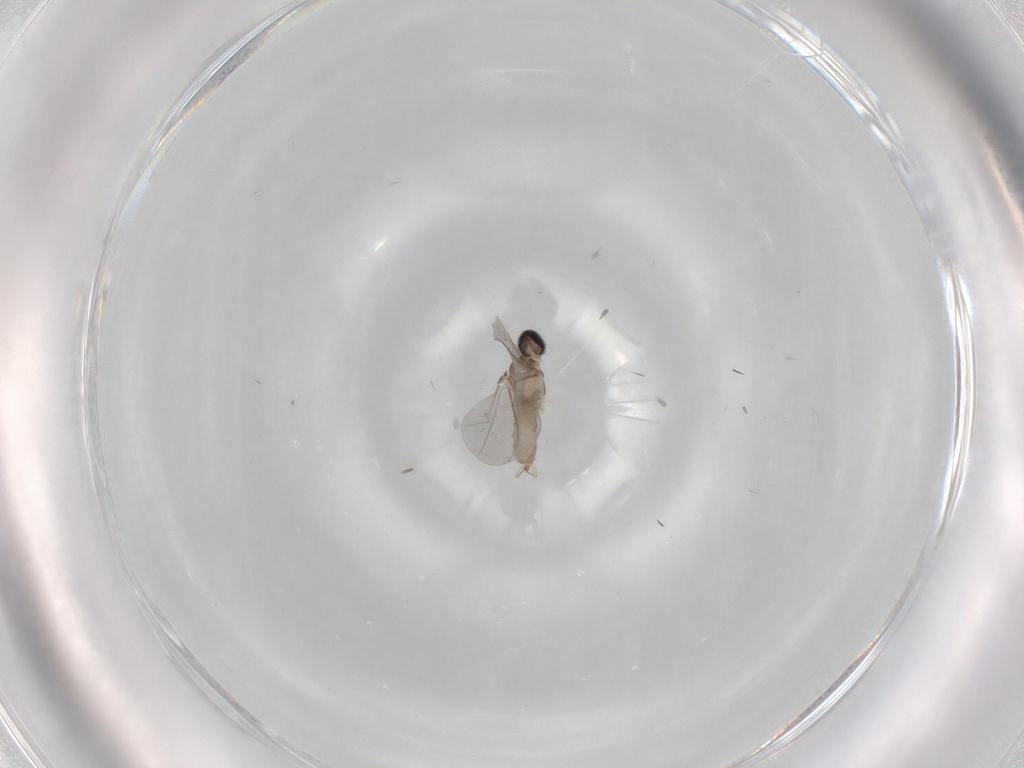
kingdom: Animalia
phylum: Arthropoda
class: Insecta
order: Diptera
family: Cecidomyiidae
